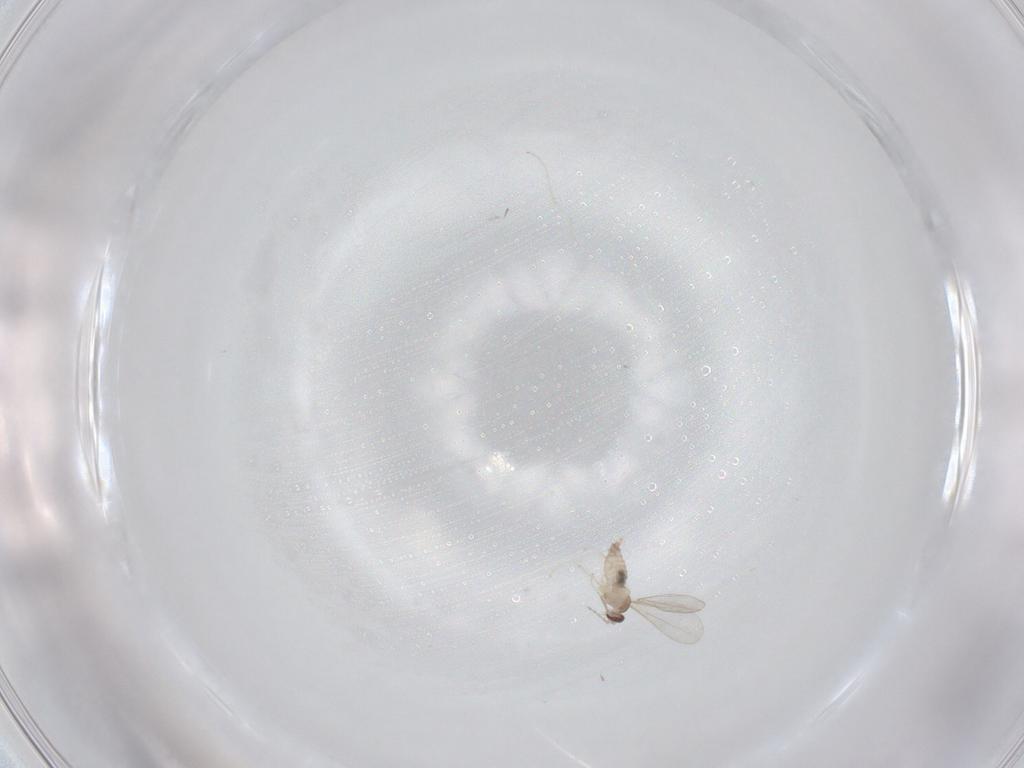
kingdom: Animalia
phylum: Arthropoda
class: Insecta
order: Diptera
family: Cecidomyiidae
